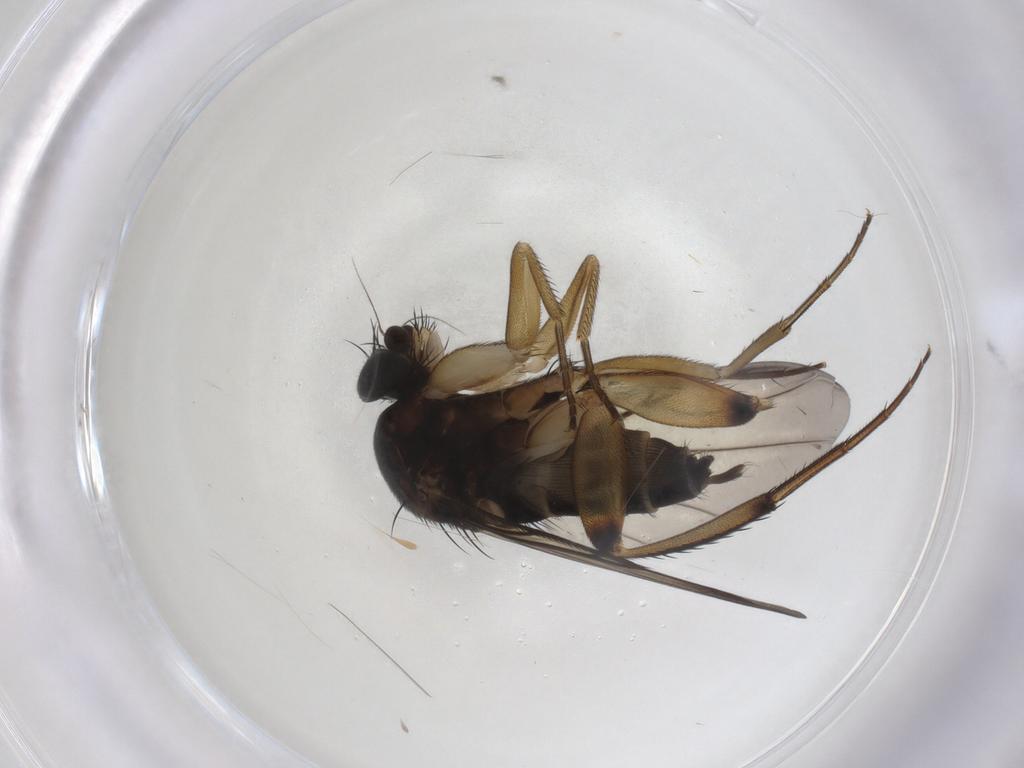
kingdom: Animalia
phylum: Arthropoda
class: Insecta
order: Diptera
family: Phoridae
